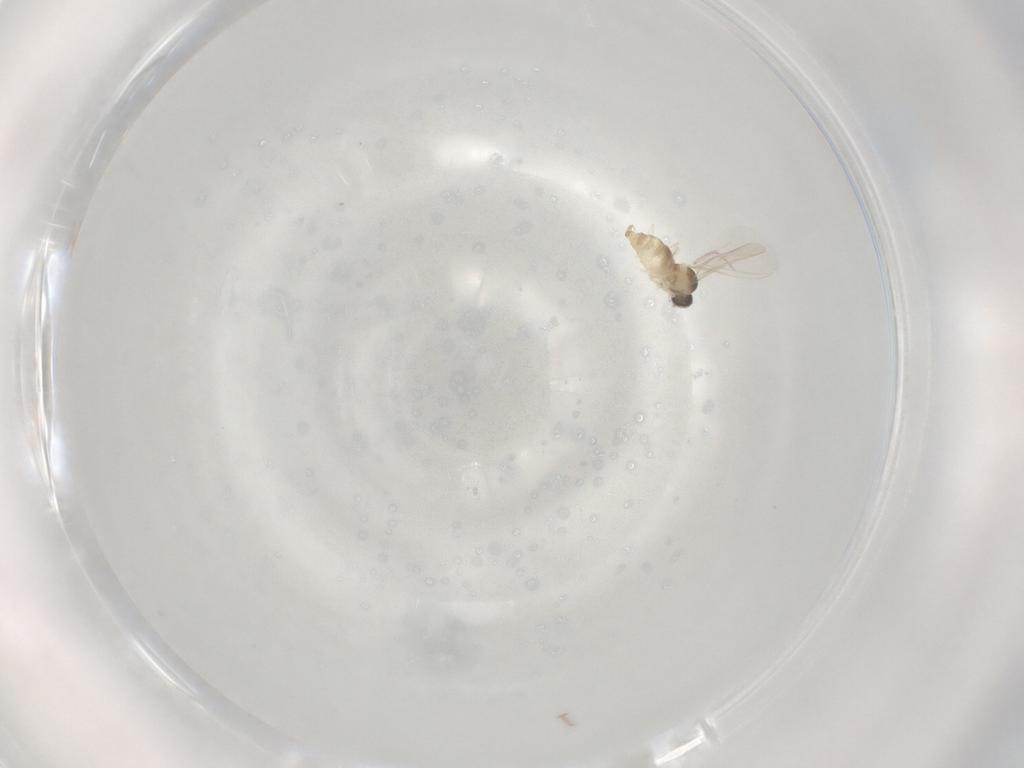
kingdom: Animalia
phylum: Arthropoda
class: Insecta
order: Diptera
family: Cecidomyiidae
